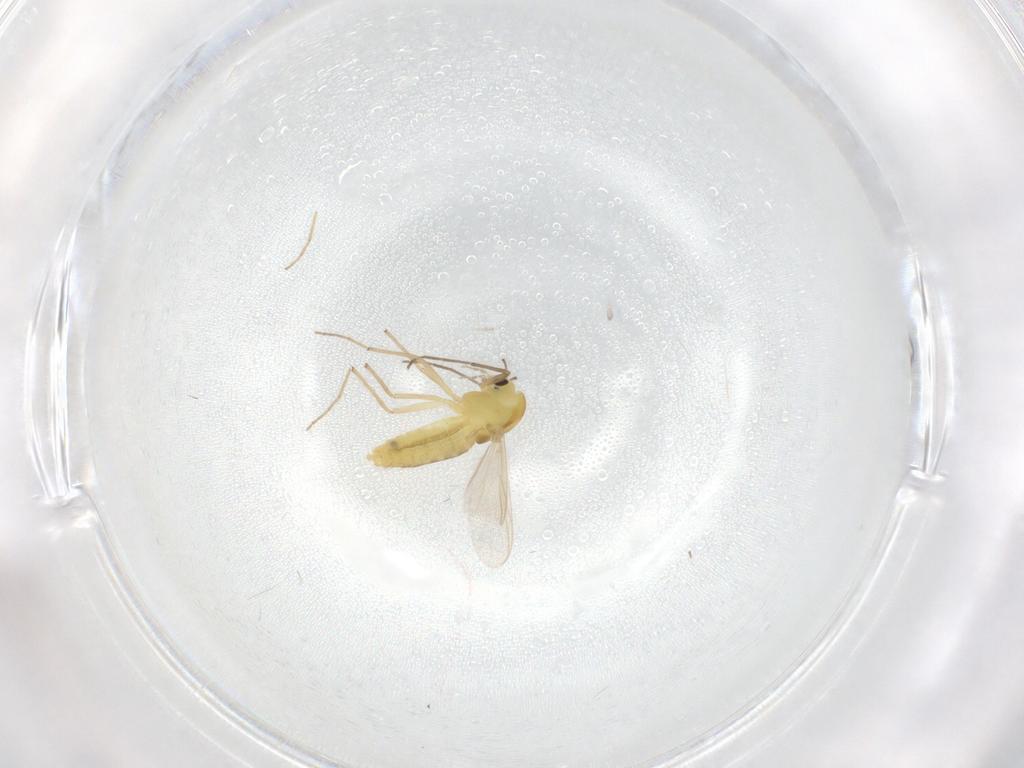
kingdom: Animalia
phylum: Arthropoda
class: Insecta
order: Diptera
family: Chironomidae
